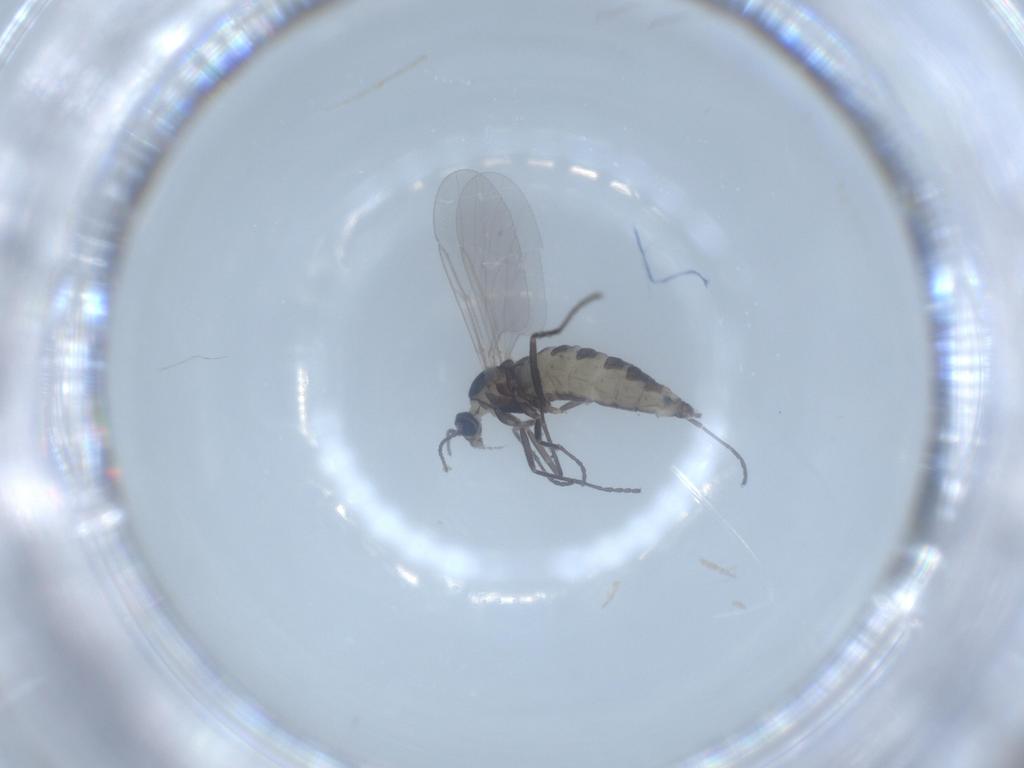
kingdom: Animalia
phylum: Arthropoda
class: Insecta
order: Diptera
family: Cecidomyiidae
